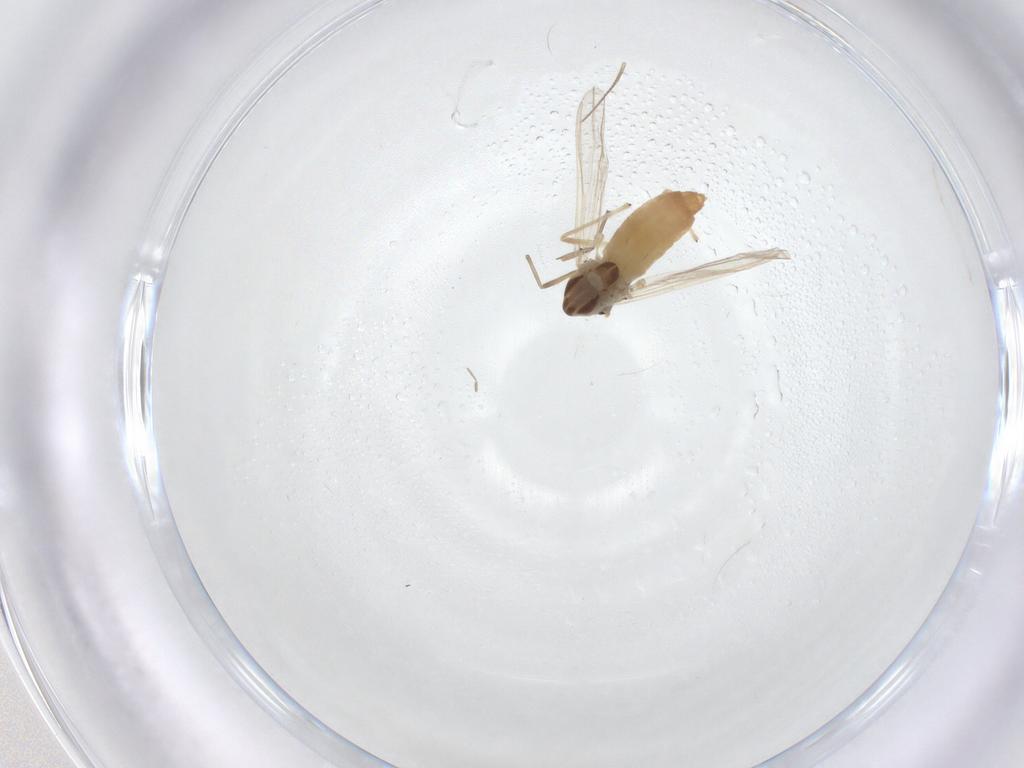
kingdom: Animalia
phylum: Arthropoda
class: Insecta
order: Diptera
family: Chironomidae
